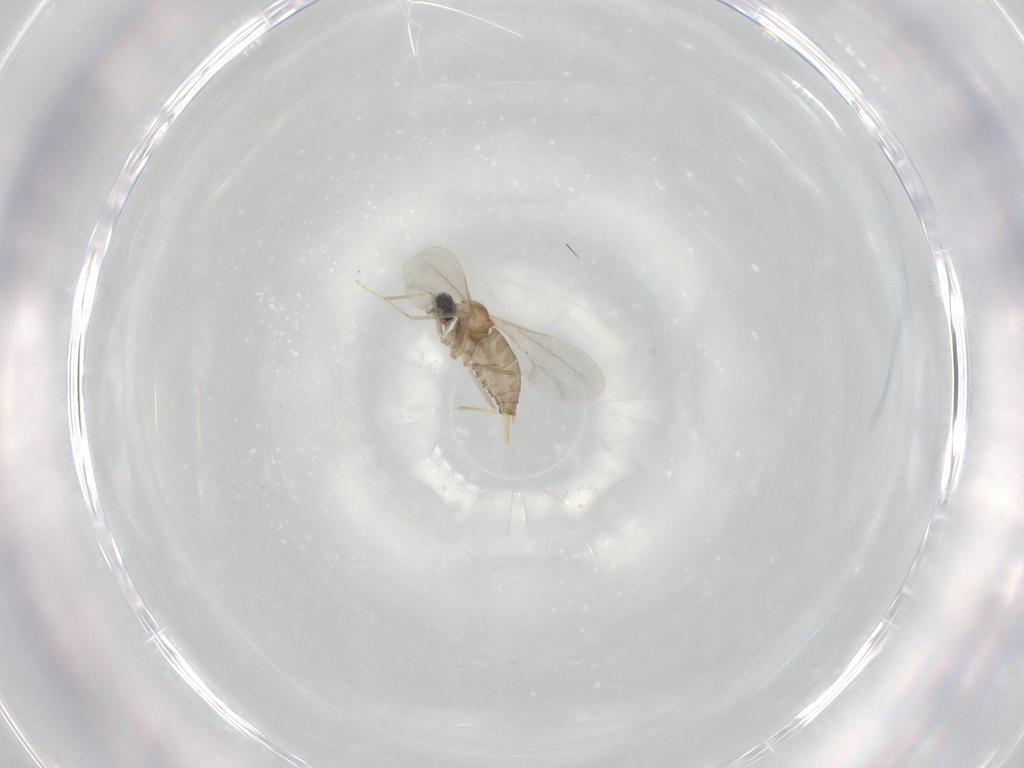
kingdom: Animalia
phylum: Arthropoda
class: Insecta
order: Diptera
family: Cecidomyiidae
